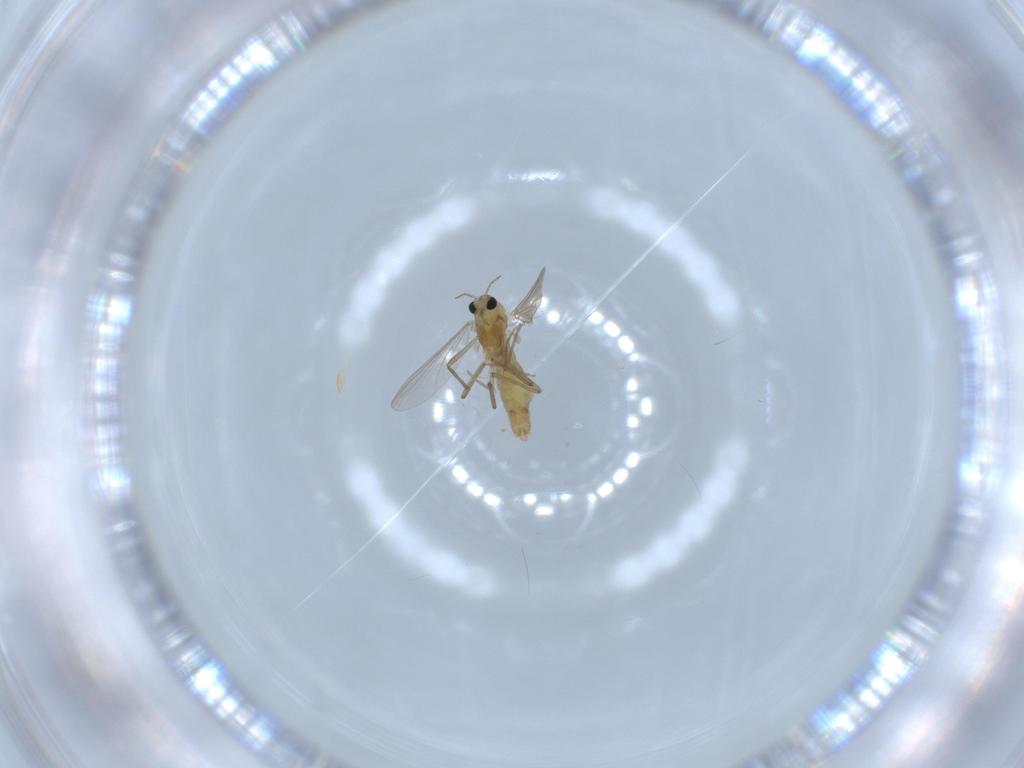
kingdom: Animalia
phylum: Arthropoda
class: Insecta
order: Diptera
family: Chironomidae
